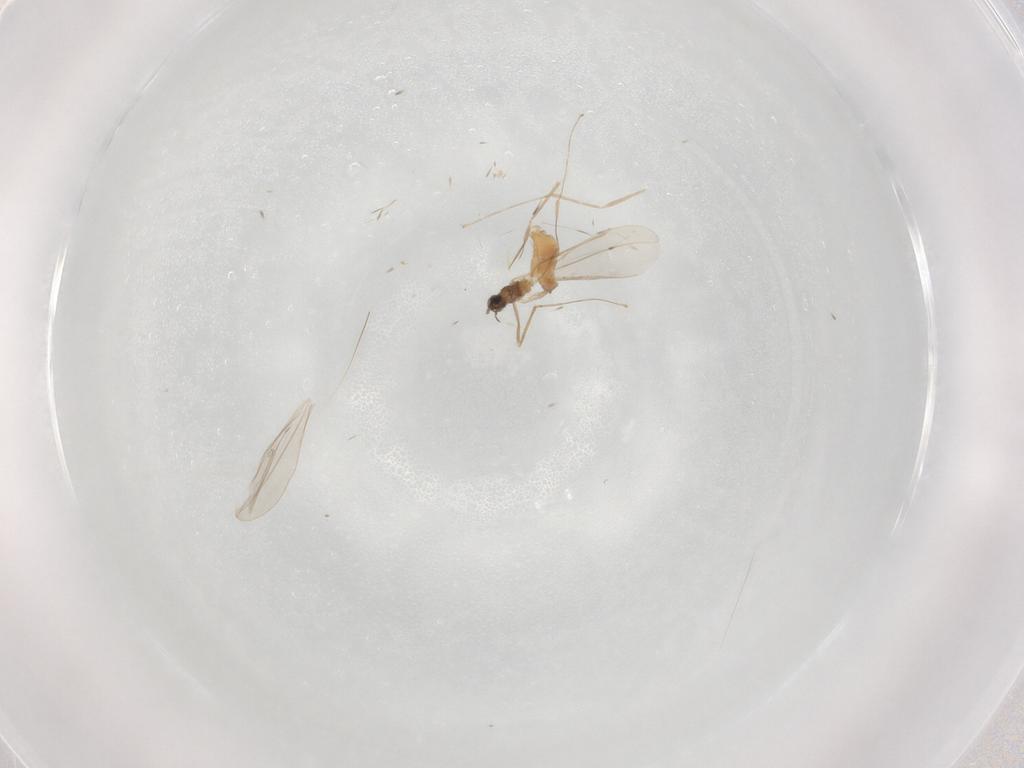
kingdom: Animalia
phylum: Arthropoda
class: Insecta
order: Diptera
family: Cecidomyiidae
